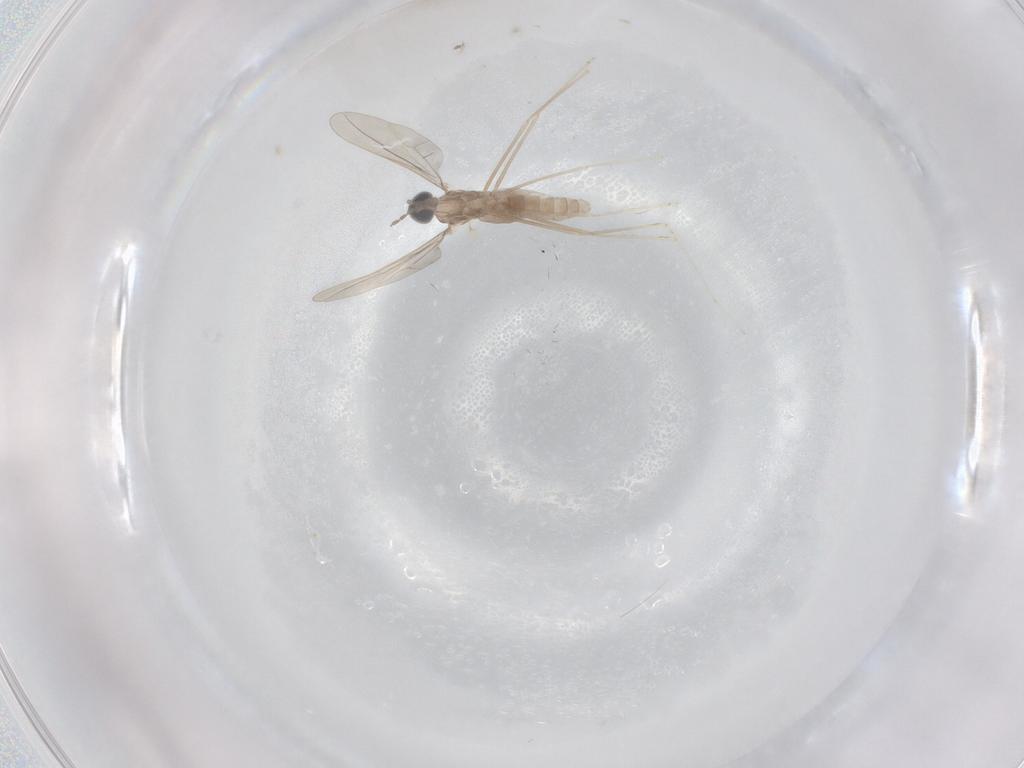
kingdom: Animalia
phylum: Arthropoda
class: Insecta
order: Diptera
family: Cecidomyiidae
